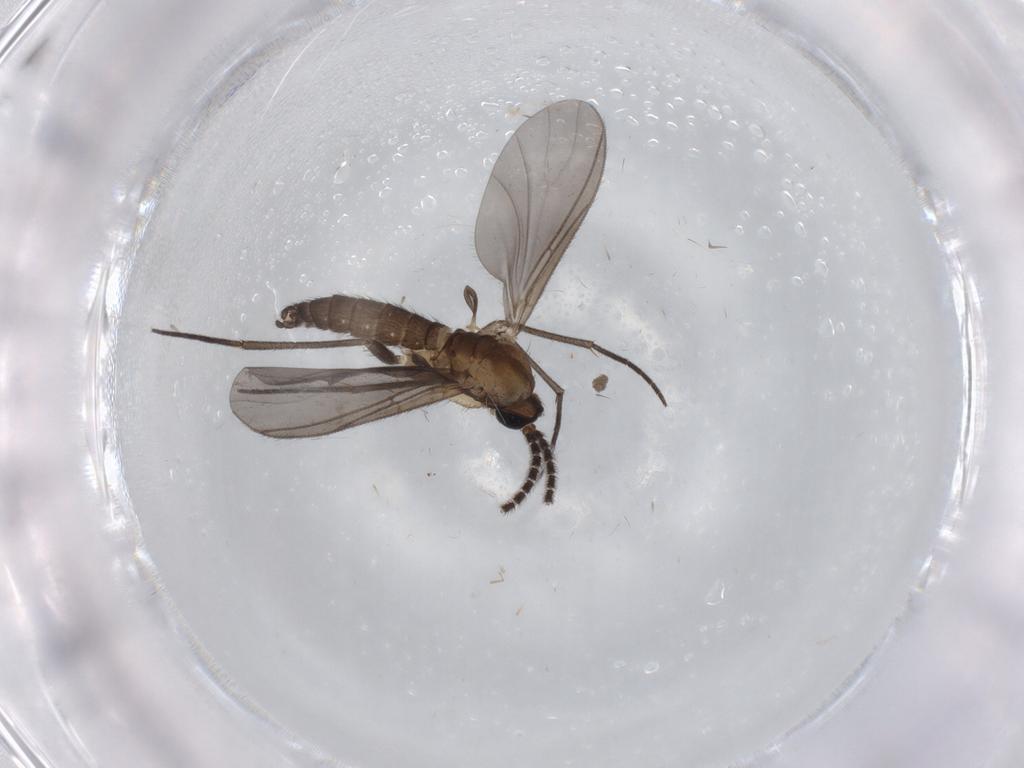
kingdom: Animalia
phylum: Arthropoda
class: Insecta
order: Diptera
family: Sciaridae
